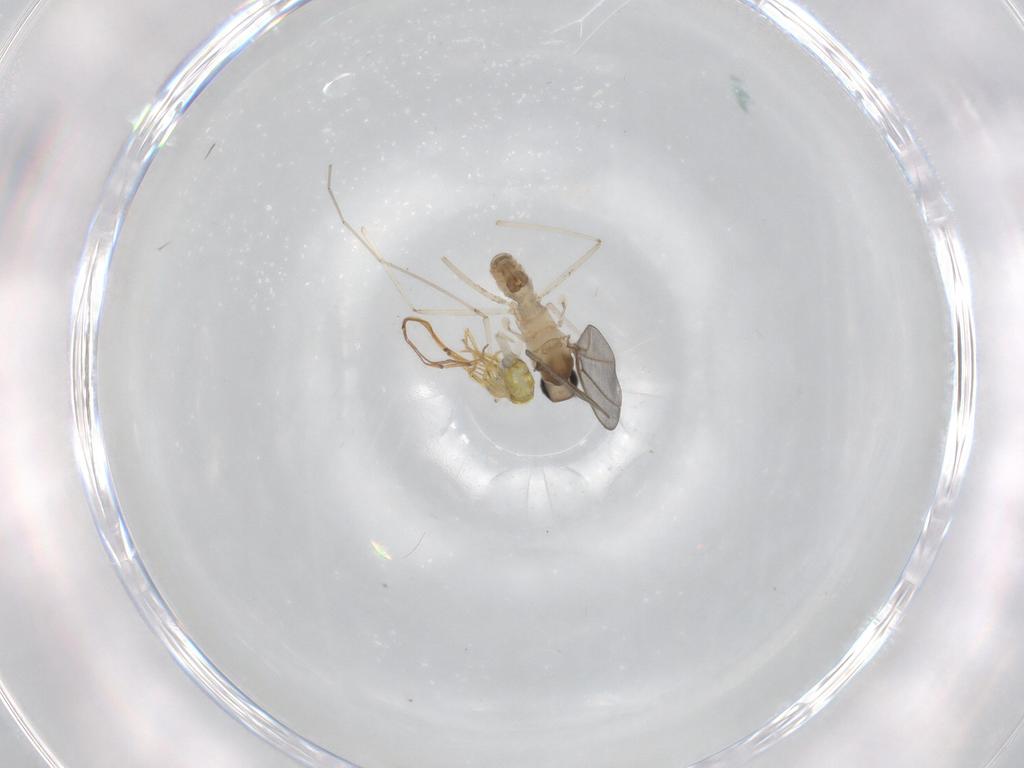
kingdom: Animalia
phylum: Arthropoda
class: Collembola
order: Entomobryomorpha
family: Entomobryidae
